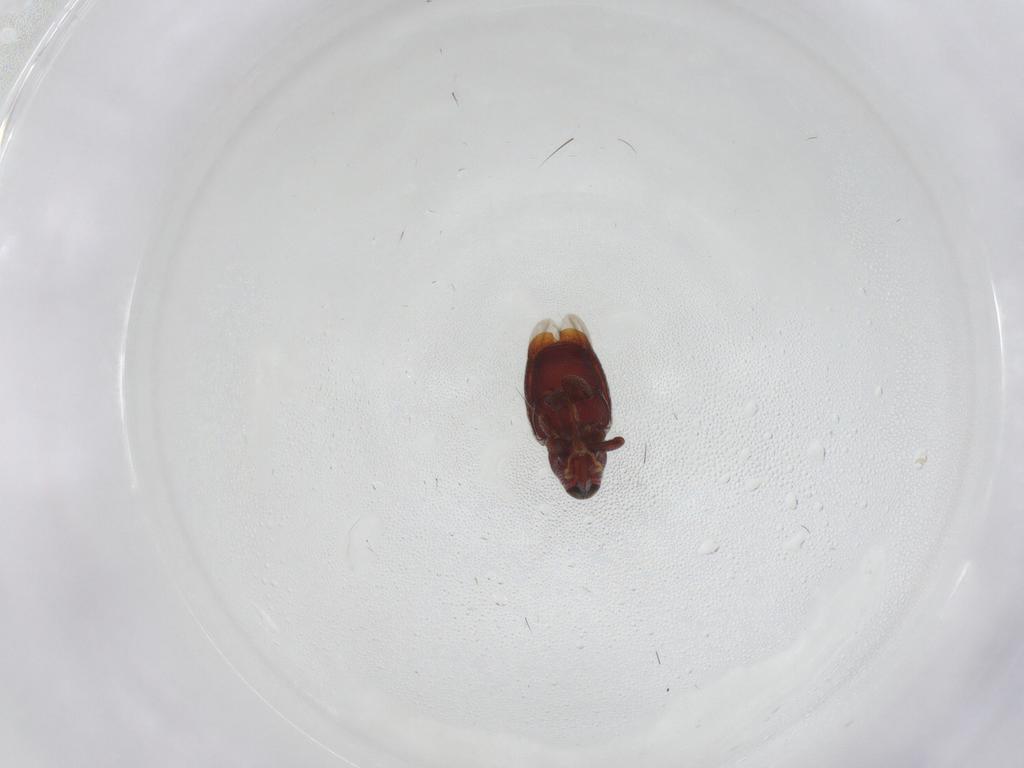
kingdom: Animalia
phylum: Arthropoda
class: Insecta
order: Coleoptera
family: Curculionidae
